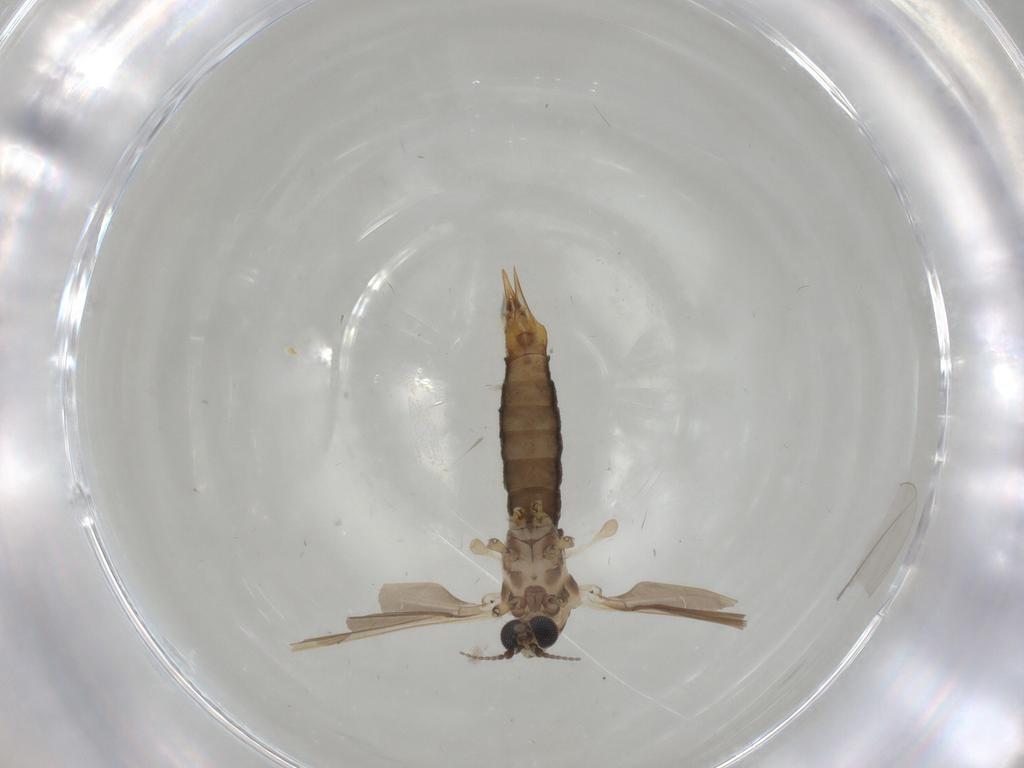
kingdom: Animalia
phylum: Arthropoda
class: Insecta
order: Diptera
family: Limoniidae
